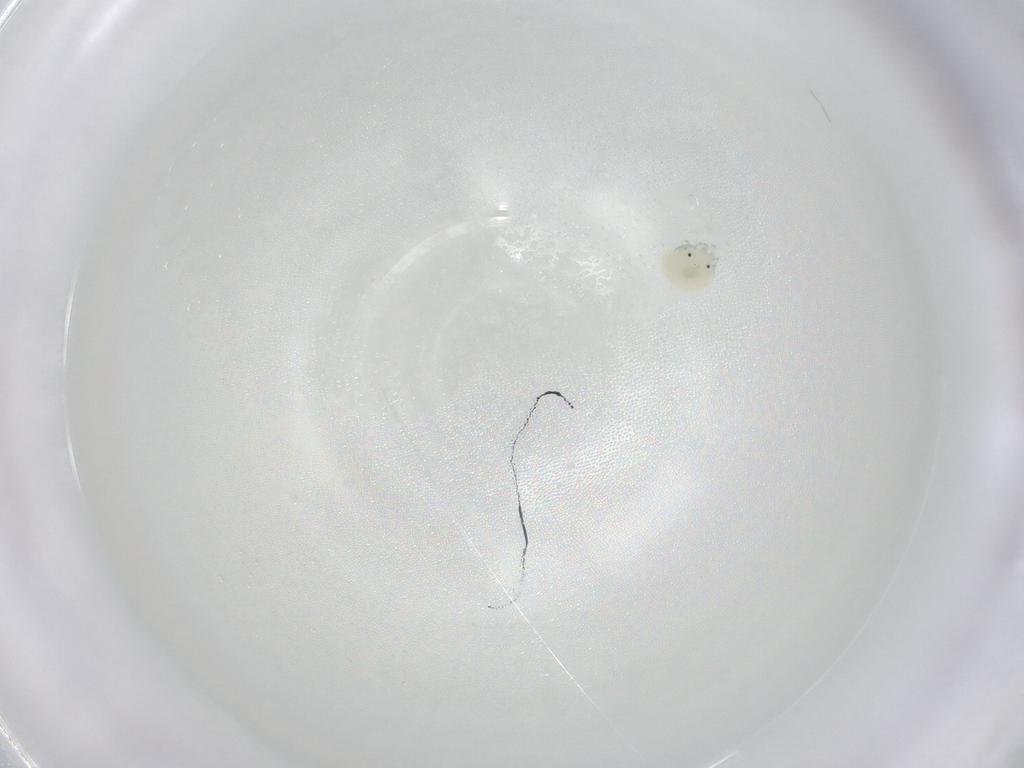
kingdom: Animalia
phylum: Arthropoda
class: Arachnida
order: Trombidiformes
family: Arrenuridae
